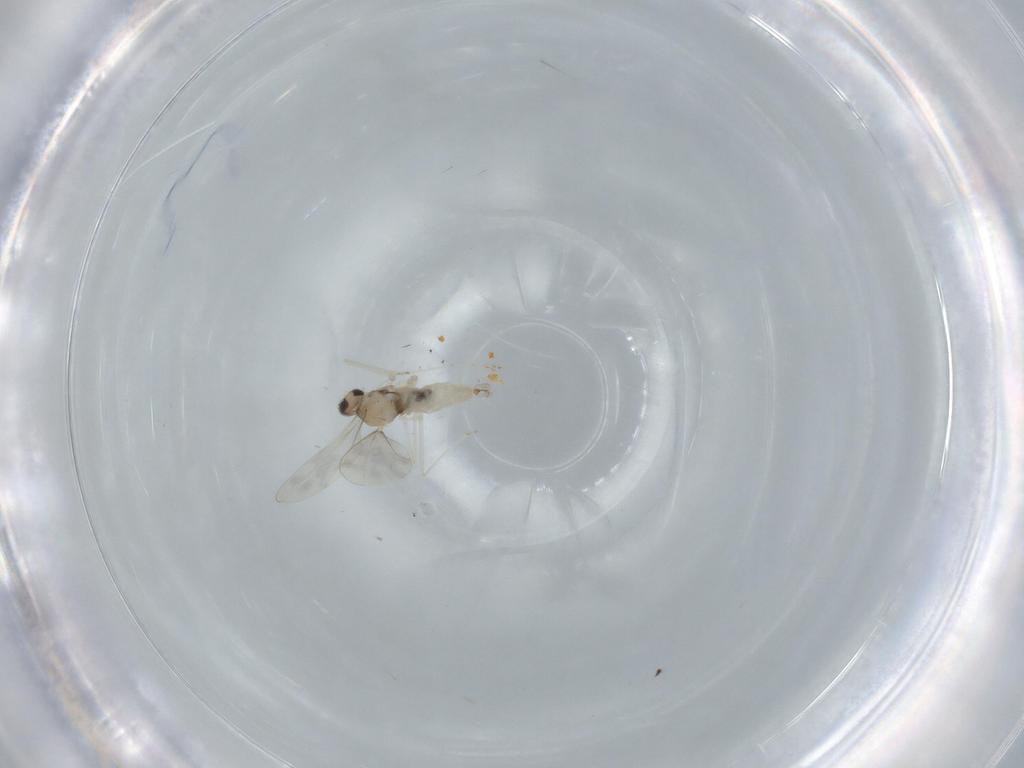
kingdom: Animalia
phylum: Arthropoda
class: Insecta
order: Diptera
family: Cecidomyiidae
